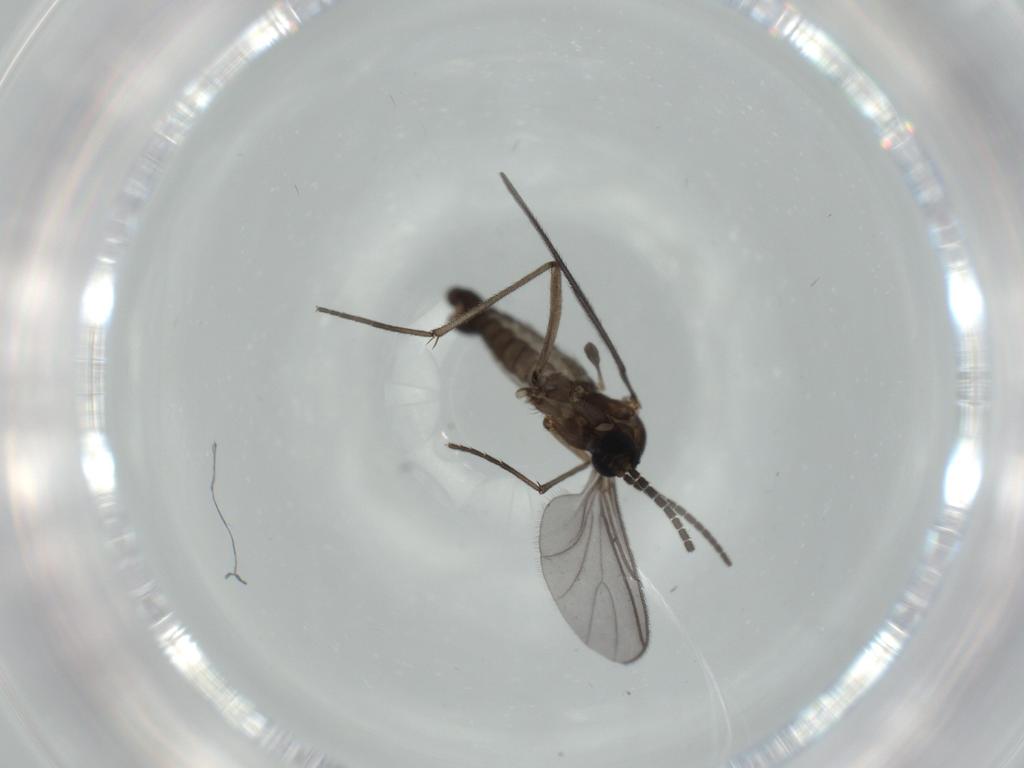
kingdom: Animalia
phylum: Arthropoda
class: Insecta
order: Diptera
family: Sciaridae
